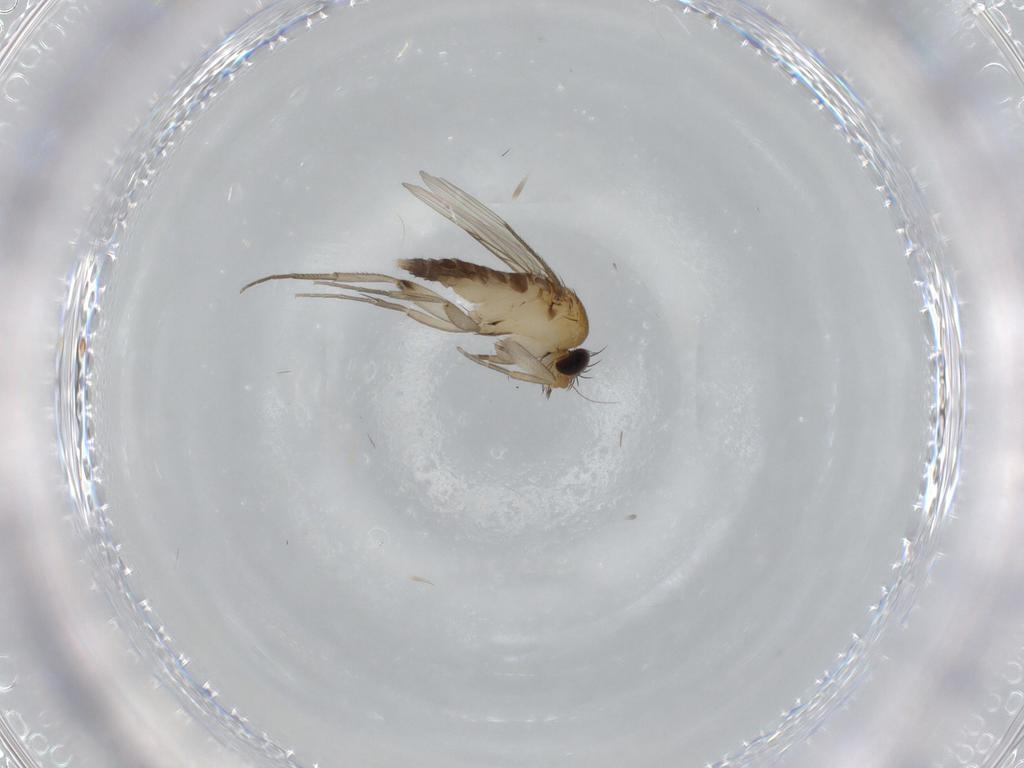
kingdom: Animalia
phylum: Arthropoda
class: Insecta
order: Diptera
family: Phoridae
